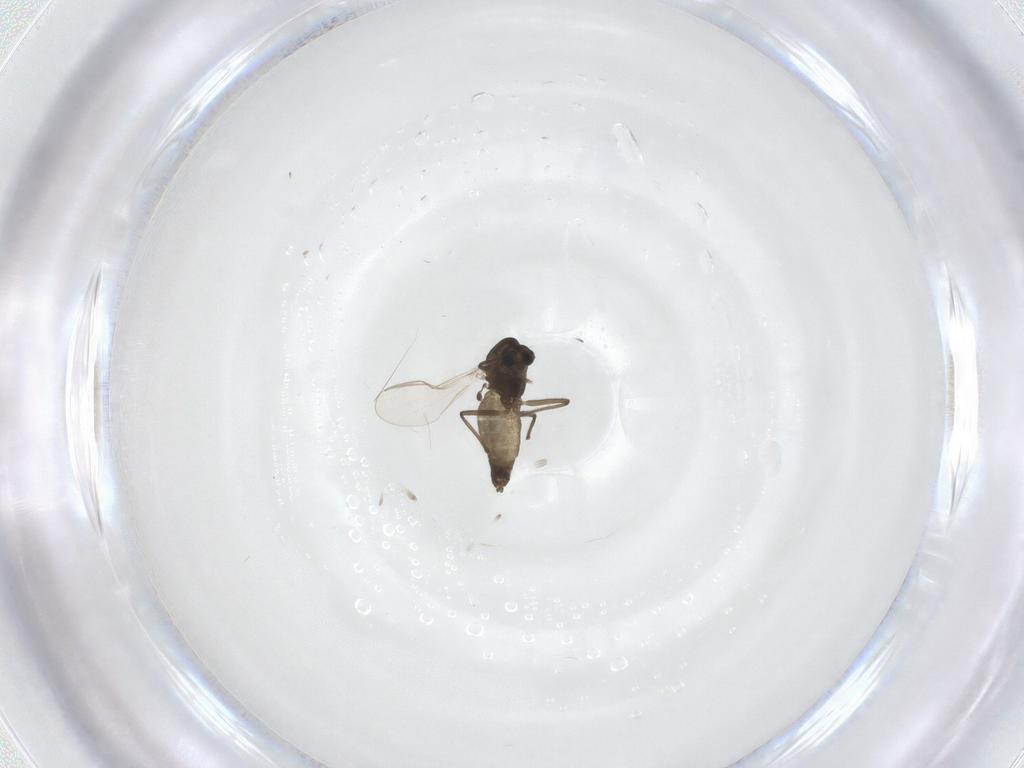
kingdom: Animalia
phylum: Arthropoda
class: Insecta
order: Diptera
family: Chironomidae
